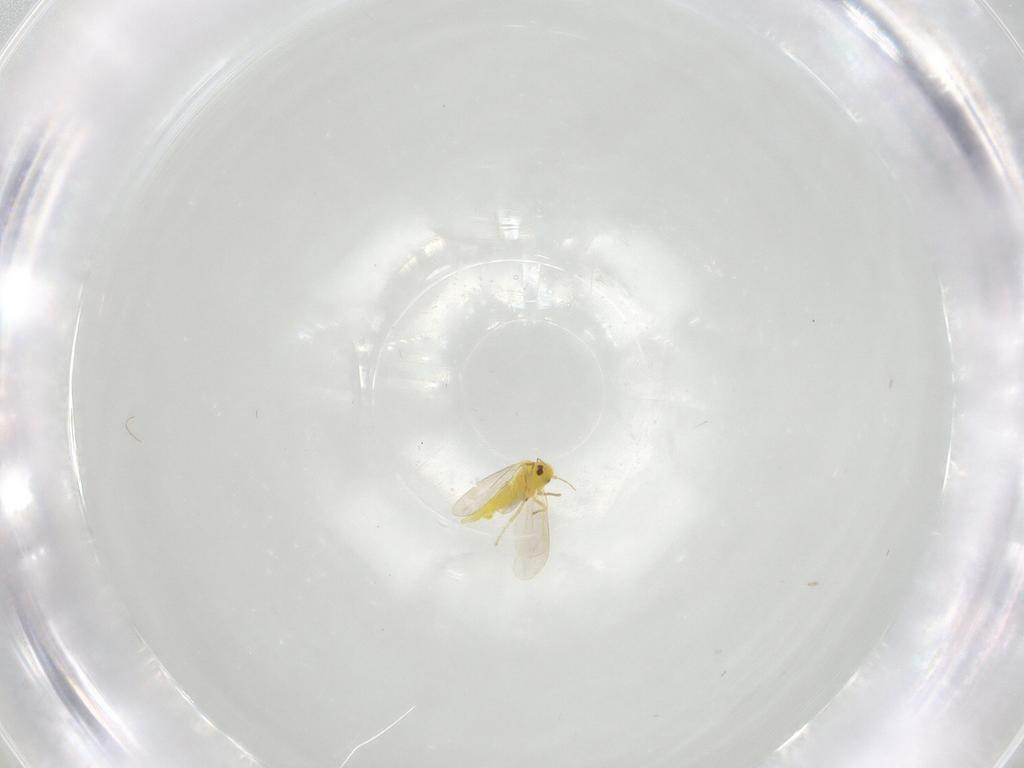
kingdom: Animalia
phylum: Arthropoda
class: Insecta
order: Hemiptera
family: Aleyrodidae
